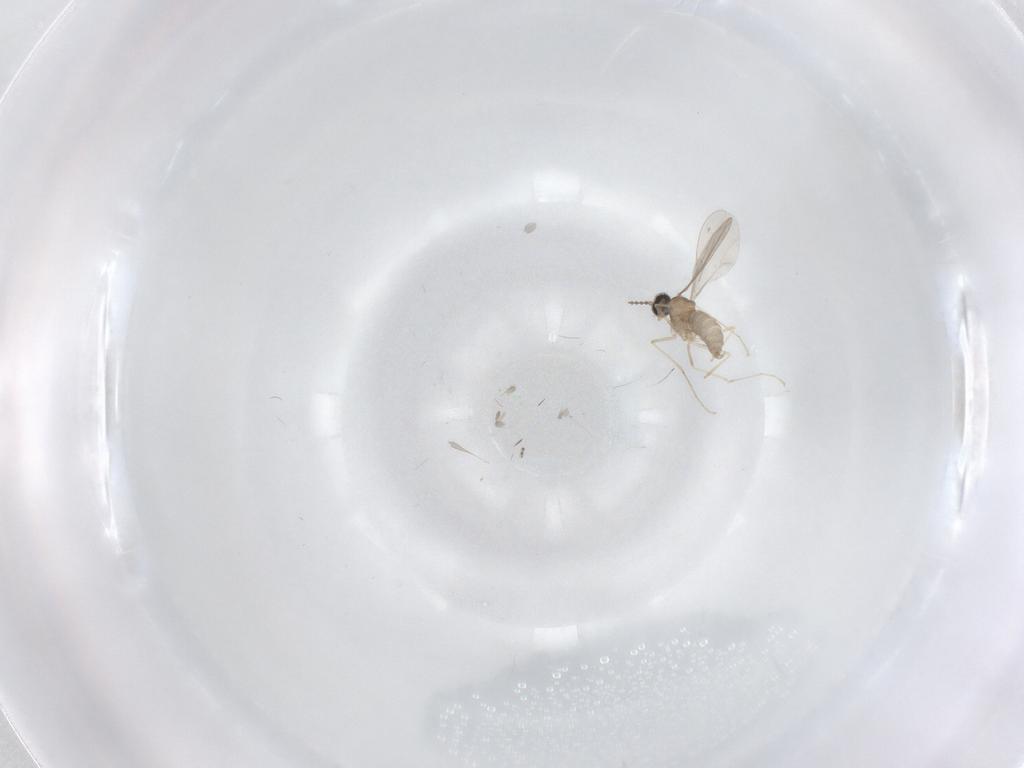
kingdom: Animalia
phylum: Arthropoda
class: Insecta
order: Diptera
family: Cecidomyiidae
